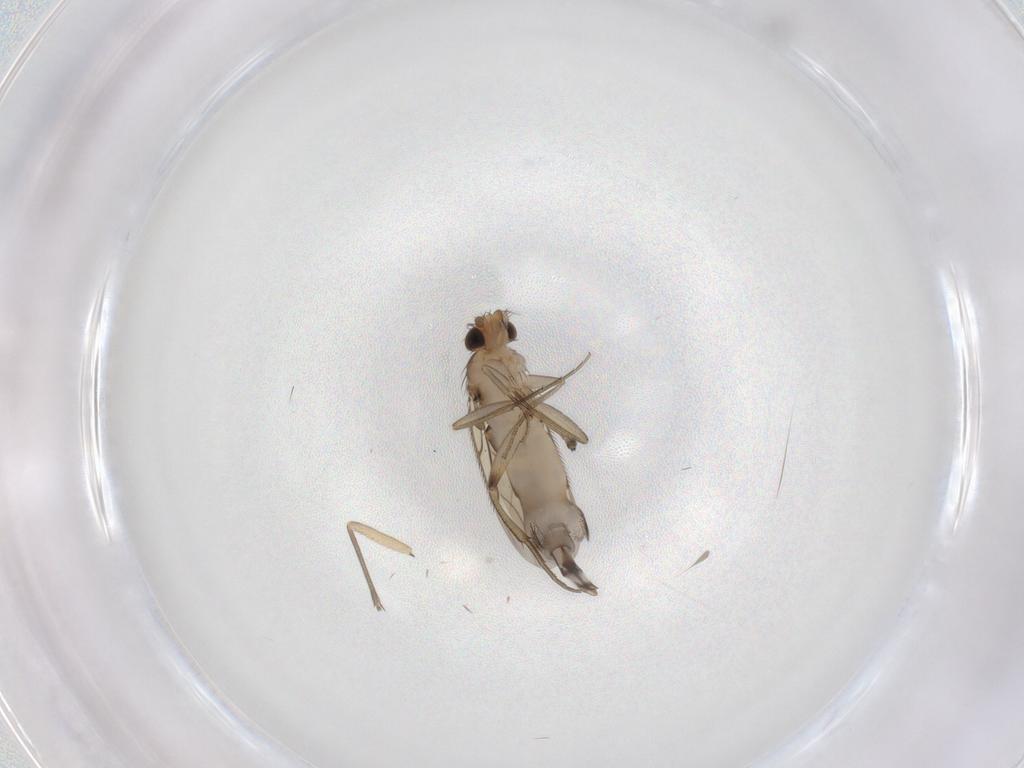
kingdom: Animalia
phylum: Arthropoda
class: Insecta
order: Diptera
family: Phoridae
